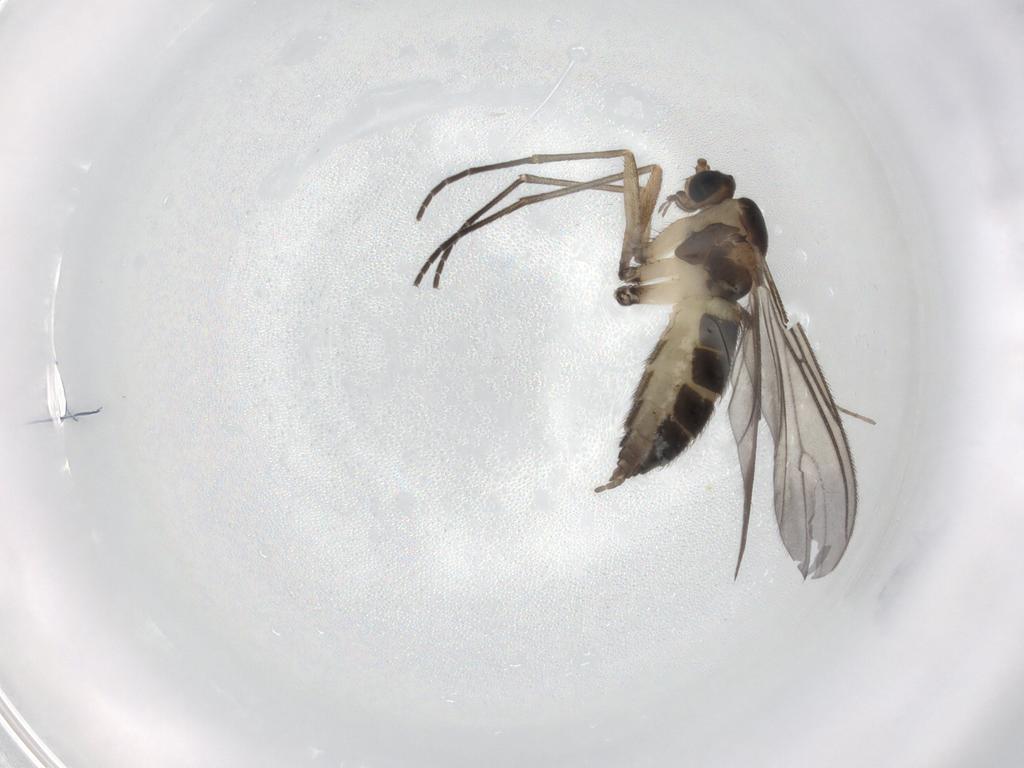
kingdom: Animalia
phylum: Arthropoda
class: Insecta
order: Diptera
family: Sciaridae
